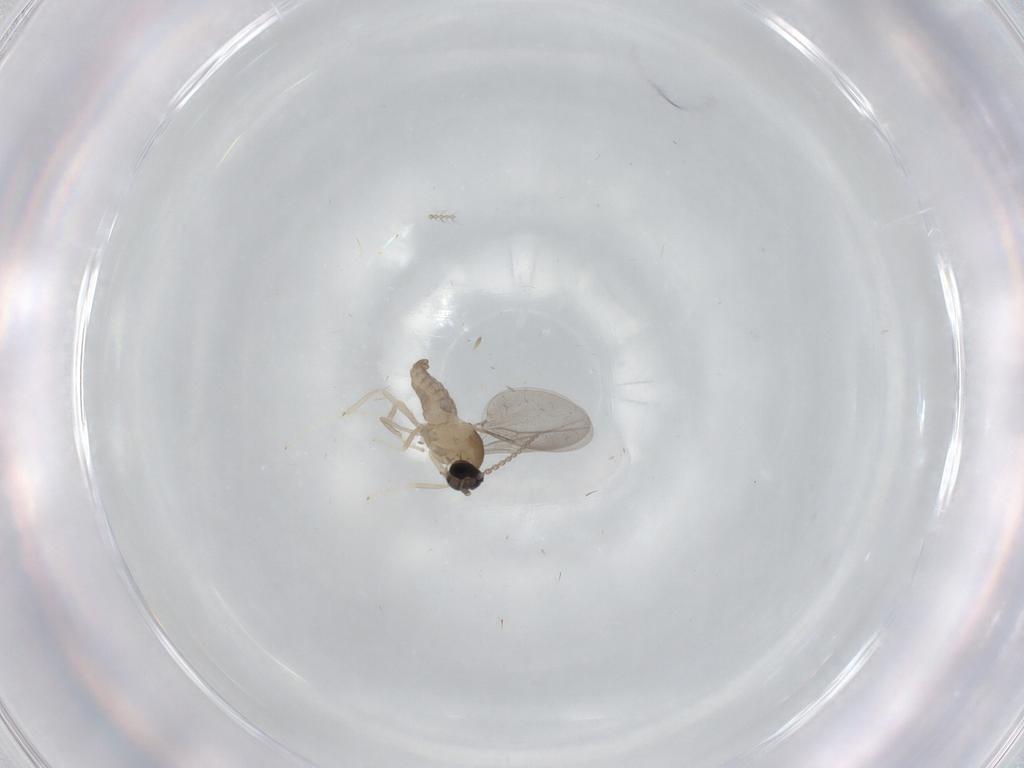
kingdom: Animalia
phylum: Arthropoda
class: Insecta
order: Diptera
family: Cecidomyiidae
